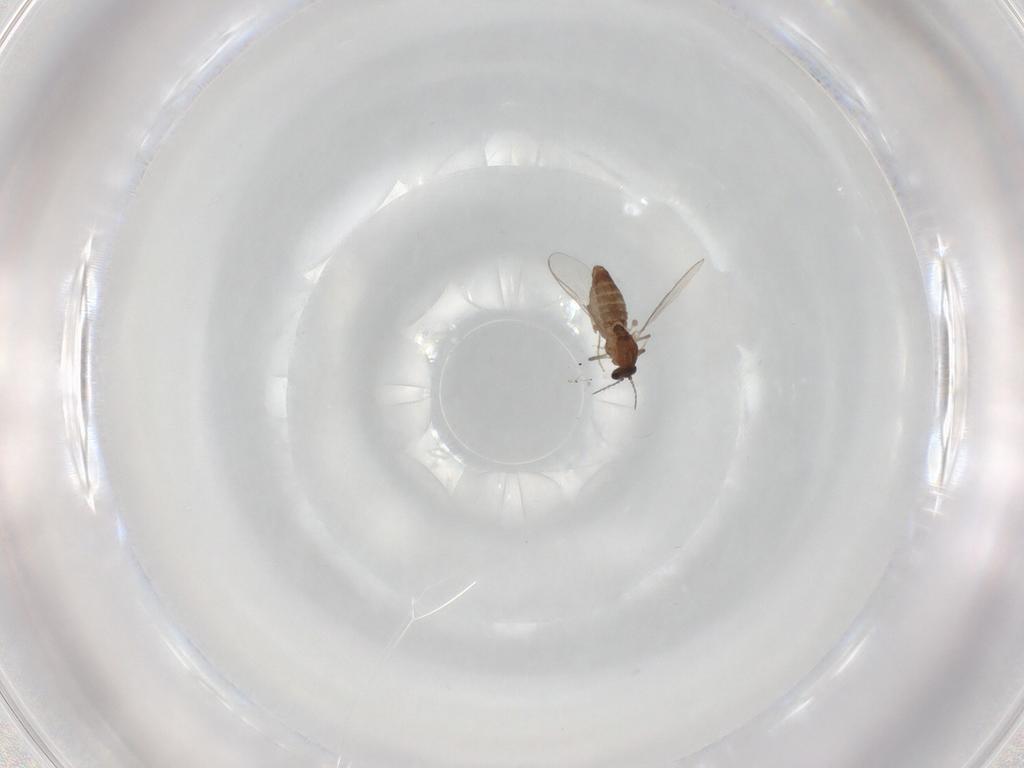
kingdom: Animalia
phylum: Arthropoda
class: Insecta
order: Diptera
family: Chironomidae
